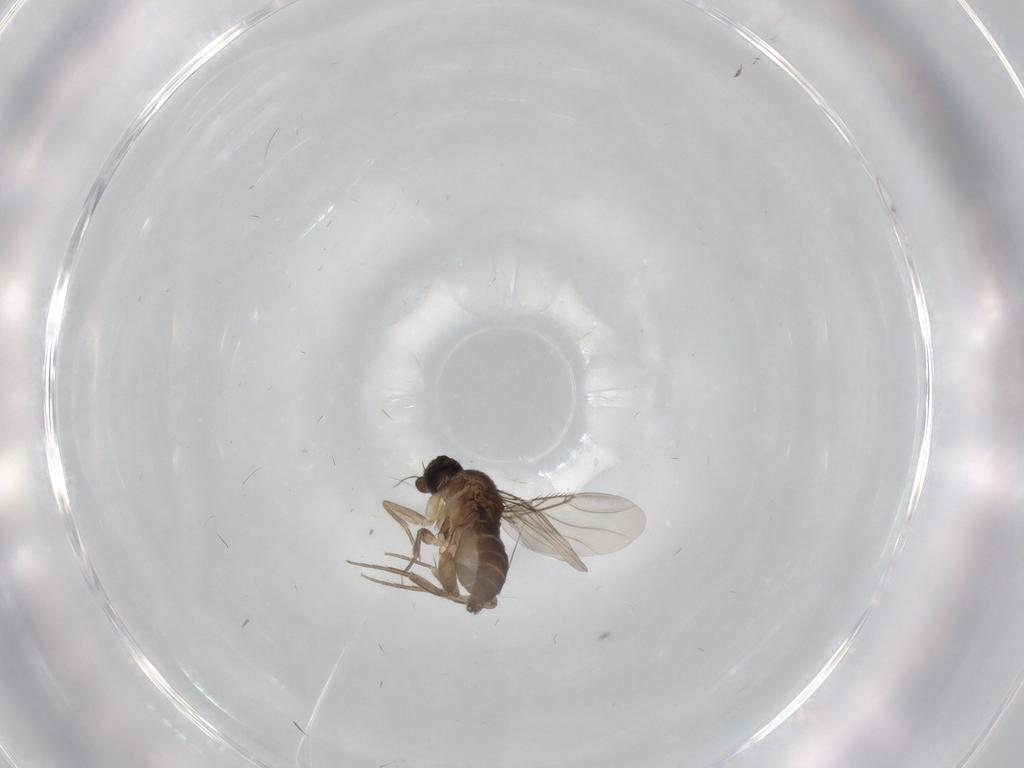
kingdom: Animalia
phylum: Arthropoda
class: Insecta
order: Diptera
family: Phoridae
